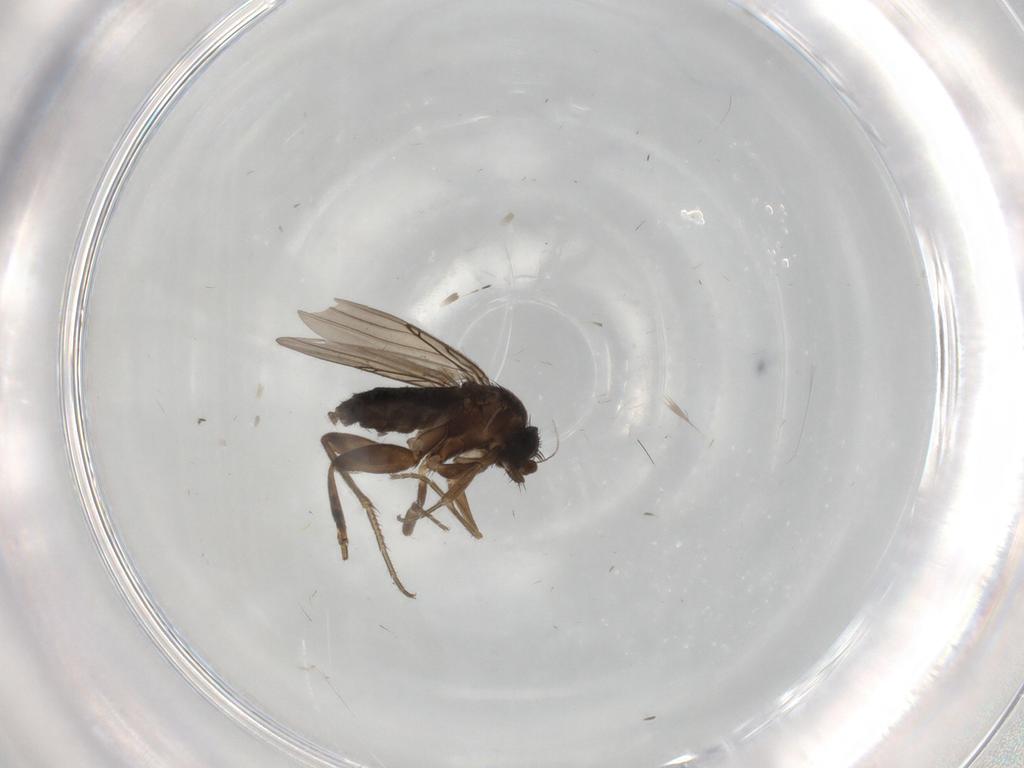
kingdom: Animalia
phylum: Arthropoda
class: Insecta
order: Diptera
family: Phoridae
